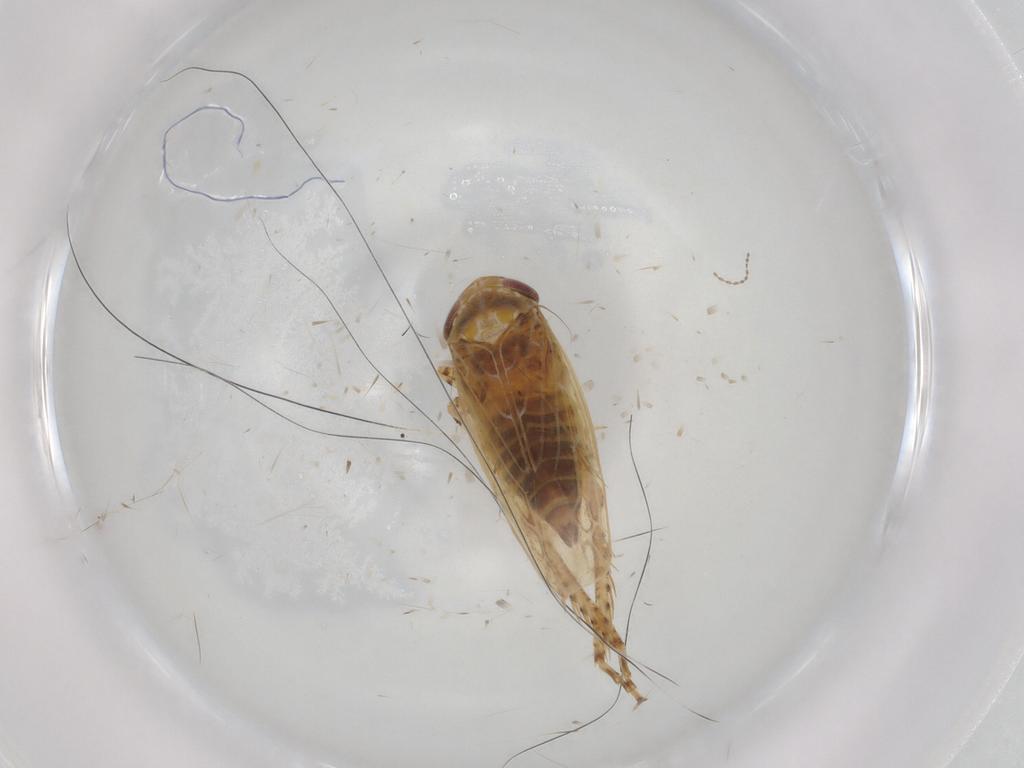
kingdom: Animalia
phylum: Arthropoda
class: Insecta
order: Hemiptera
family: Cicadellidae
